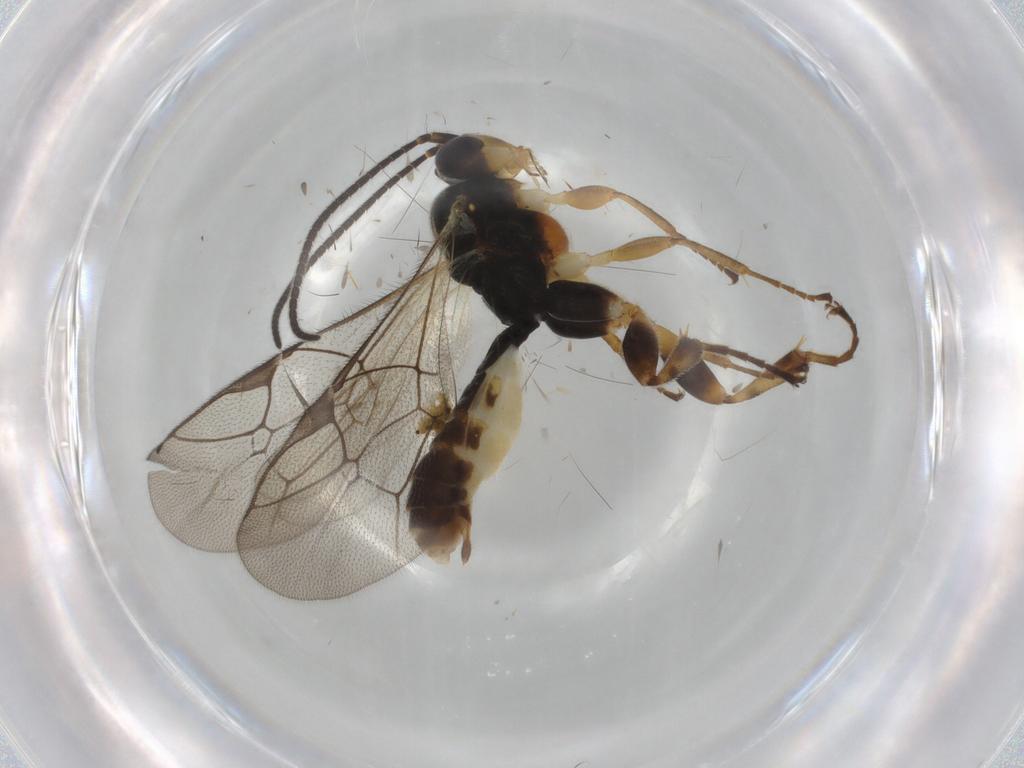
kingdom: Animalia
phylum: Arthropoda
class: Insecta
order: Hymenoptera
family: Ichneumonidae
